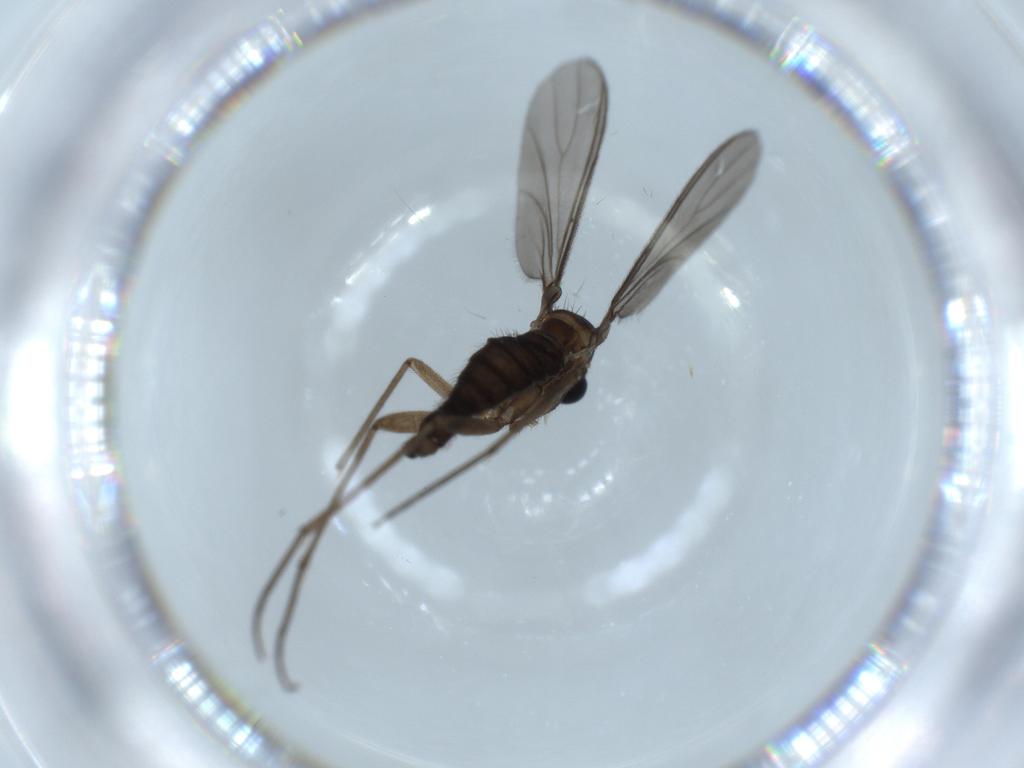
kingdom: Animalia
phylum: Arthropoda
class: Insecta
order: Diptera
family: Sciaridae
